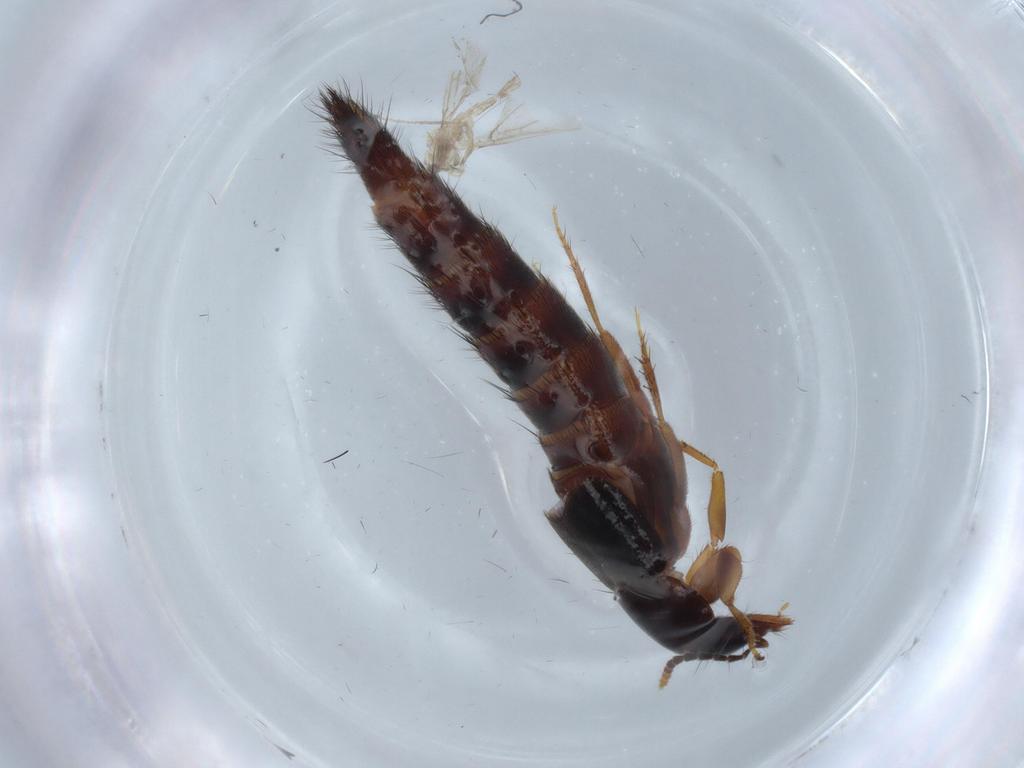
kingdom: Animalia
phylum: Arthropoda
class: Insecta
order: Coleoptera
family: Staphylinidae
